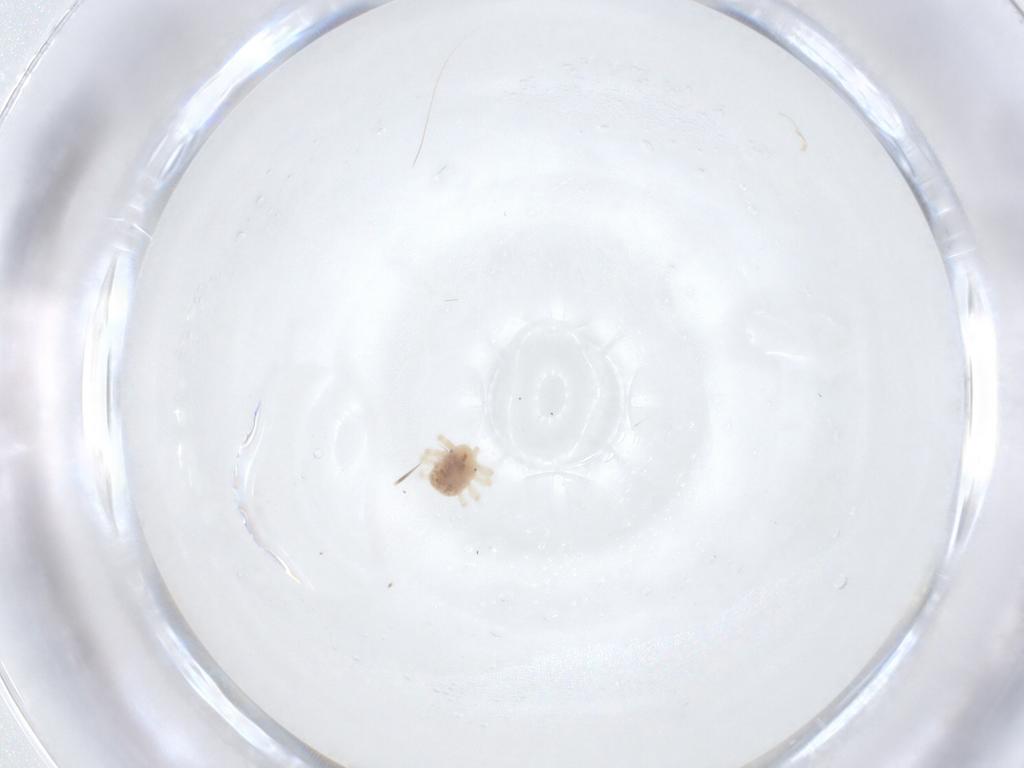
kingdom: Animalia
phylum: Arthropoda
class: Arachnida
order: Trombidiformes
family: Anystidae
